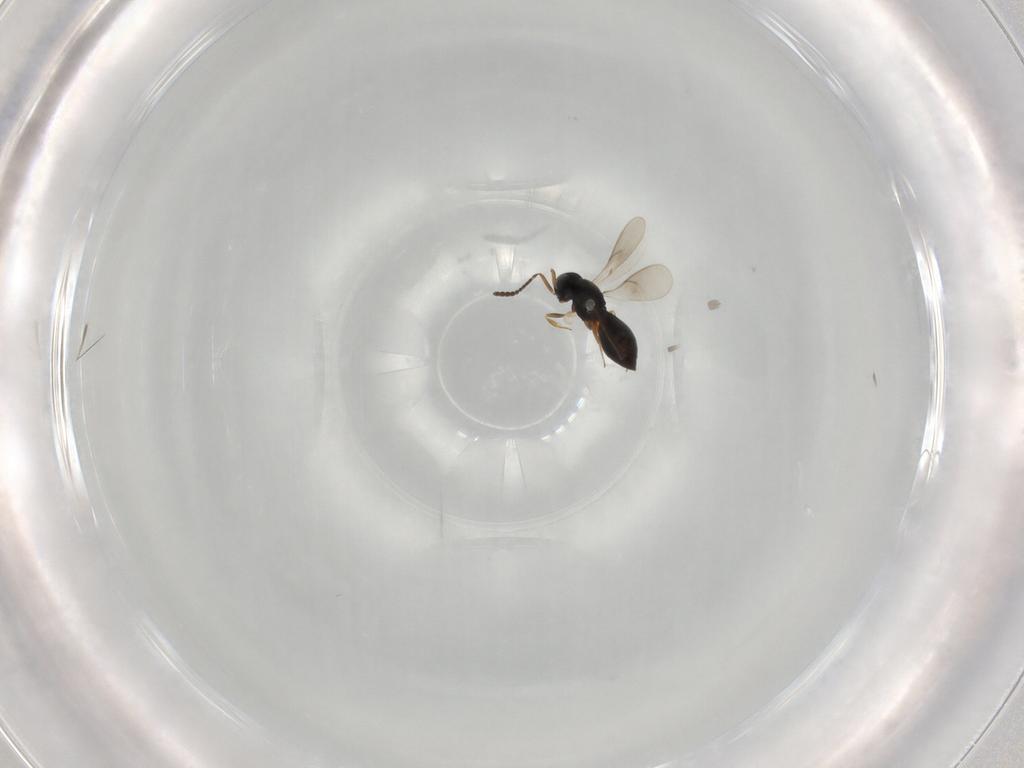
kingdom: Animalia
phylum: Arthropoda
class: Insecta
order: Hymenoptera
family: Scelionidae
